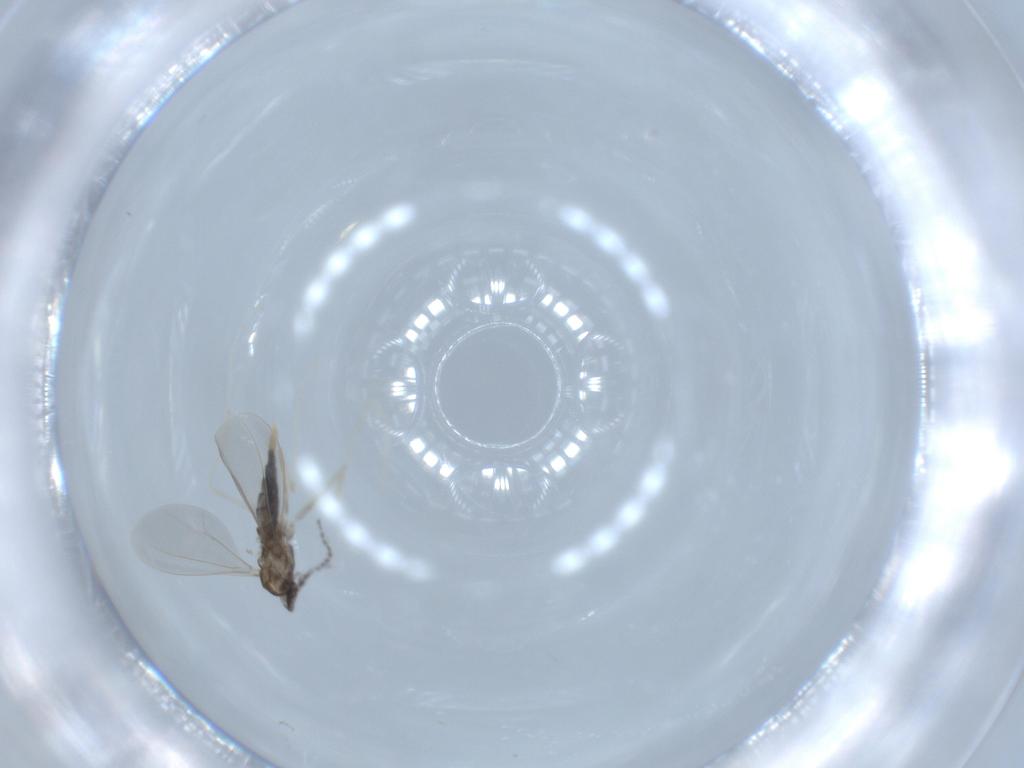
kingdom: Animalia
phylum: Arthropoda
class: Insecta
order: Diptera
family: Cecidomyiidae
